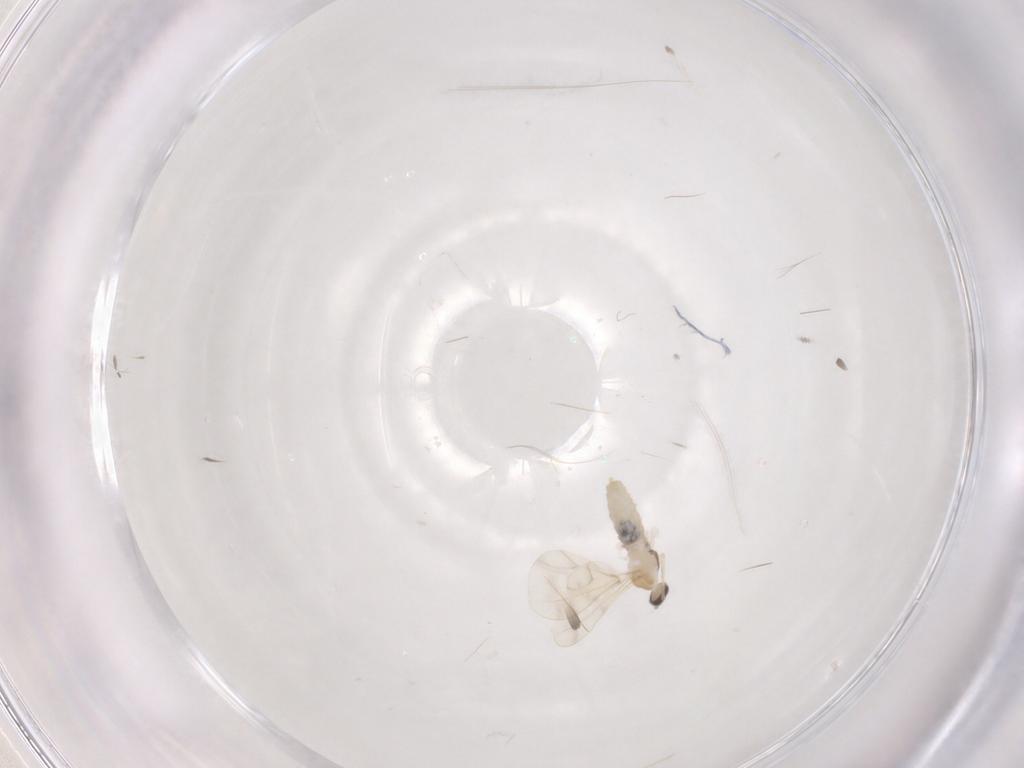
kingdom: Animalia
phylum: Arthropoda
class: Insecta
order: Diptera
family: Cecidomyiidae
